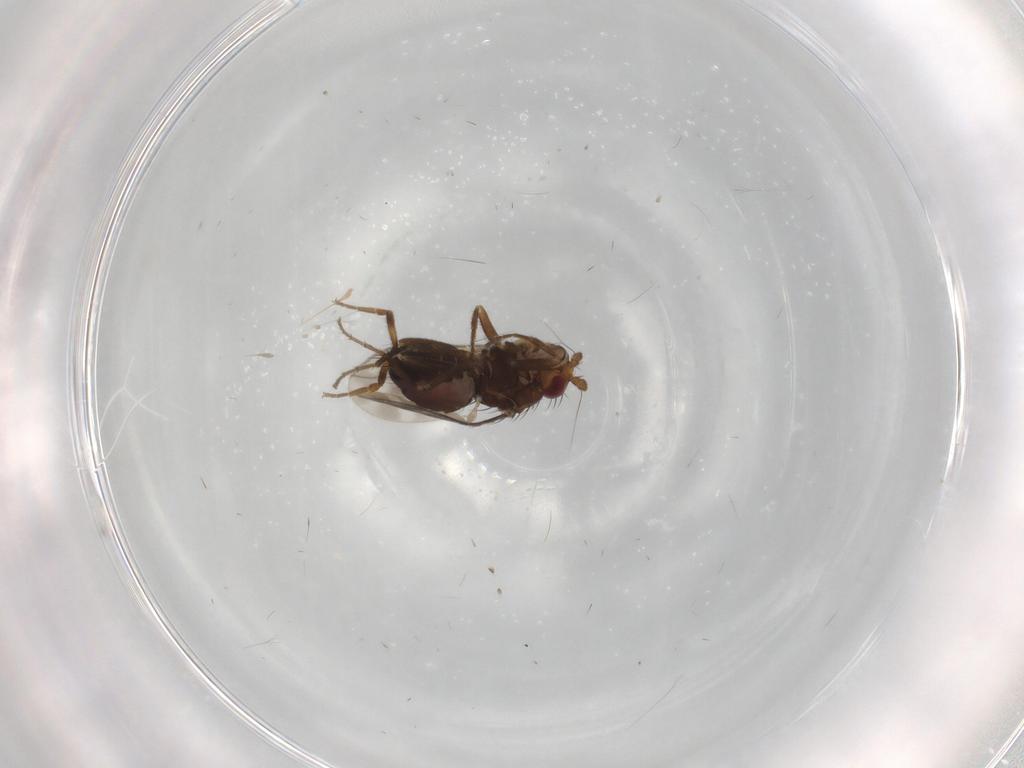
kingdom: Animalia
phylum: Arthropoda
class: Insecta
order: Diptera
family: Sphaeroceridae
